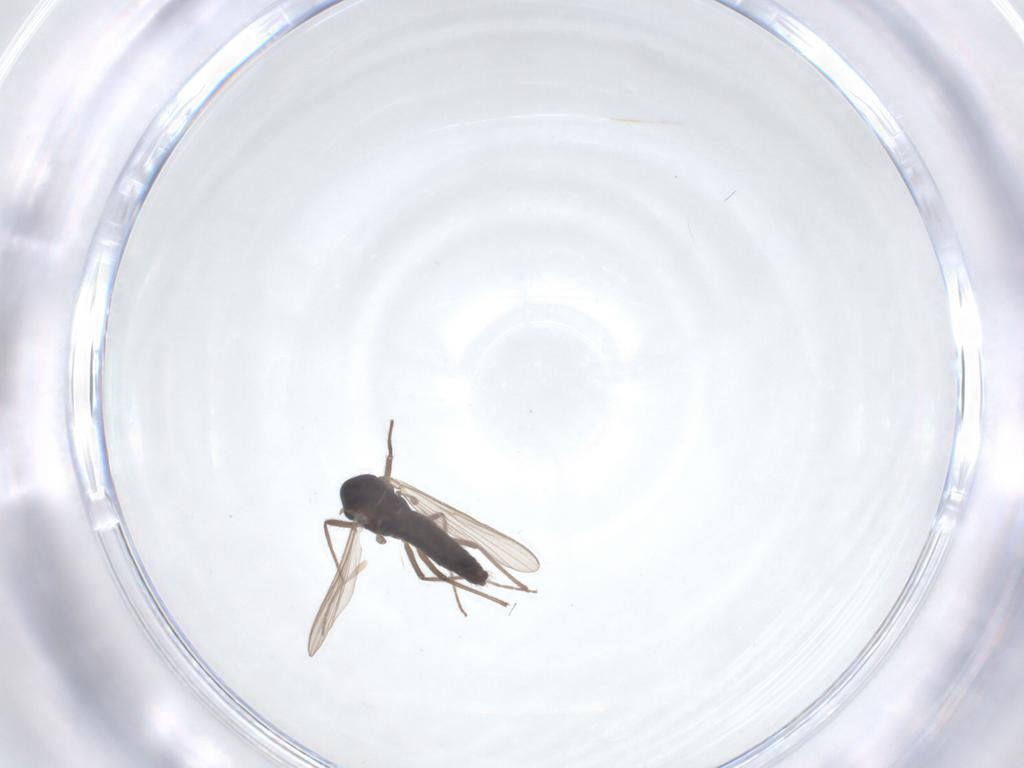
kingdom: Animalia
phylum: Arthropoda
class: Insecta
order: Diptera
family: Chironomidae
